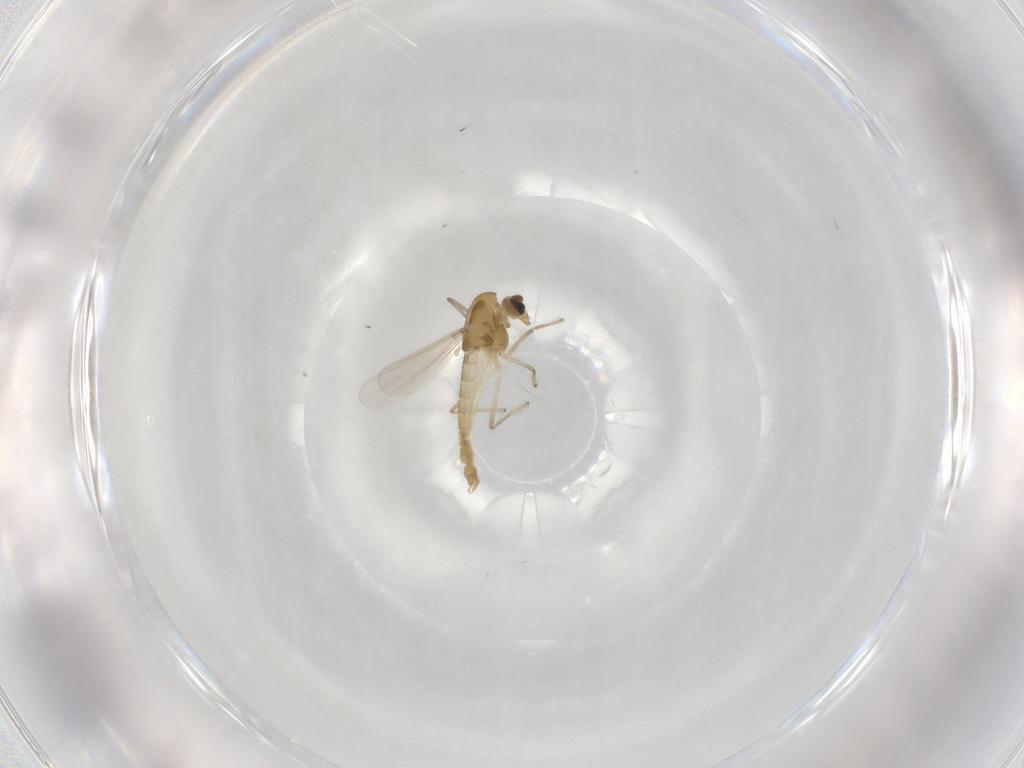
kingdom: Animalia
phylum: Arthropoda
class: Insecta
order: Diptera
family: Chironomidae
